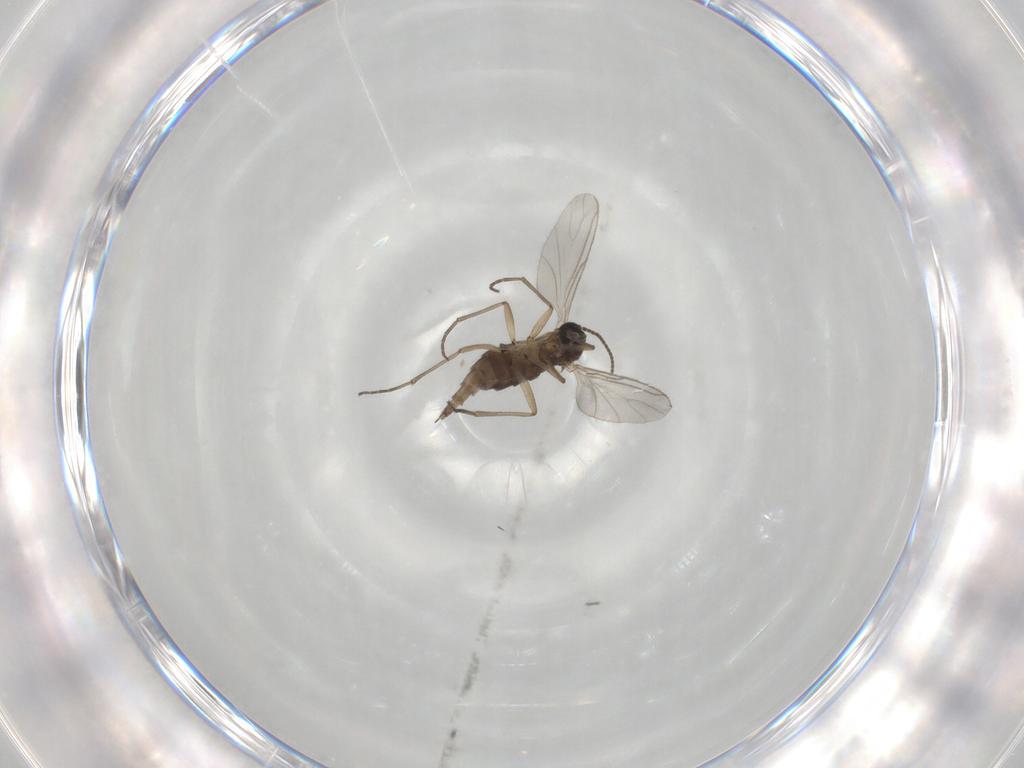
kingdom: Animalia
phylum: Arthropoda
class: Insecta
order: Diptera
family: Sciaridae
